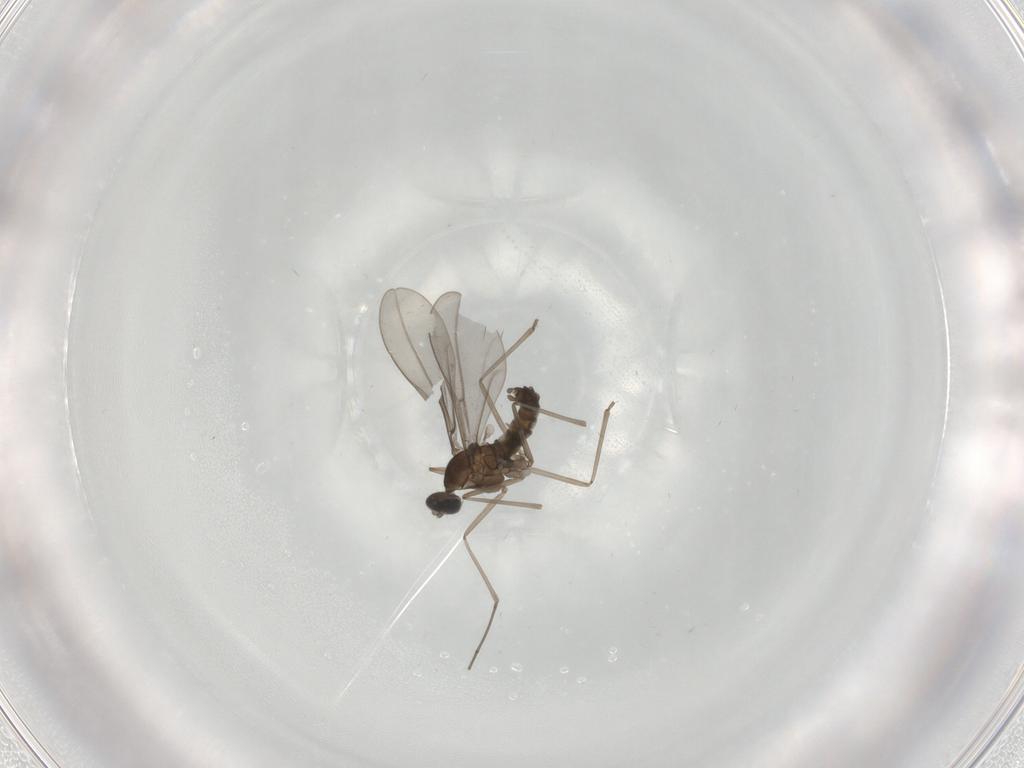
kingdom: Animalia
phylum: Arthropoda
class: Insecta
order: Diptera
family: Cecidomyiidae
